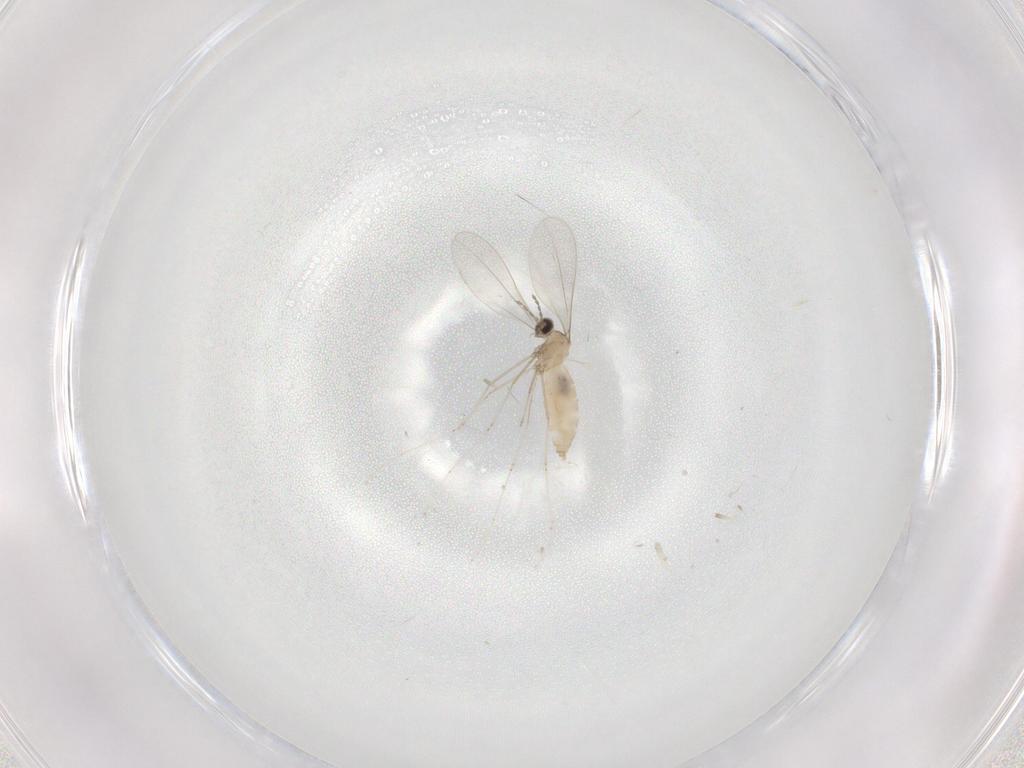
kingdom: Animalia
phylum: Arthropoda
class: Insecta
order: Diptera
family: Cecidomyiidae
